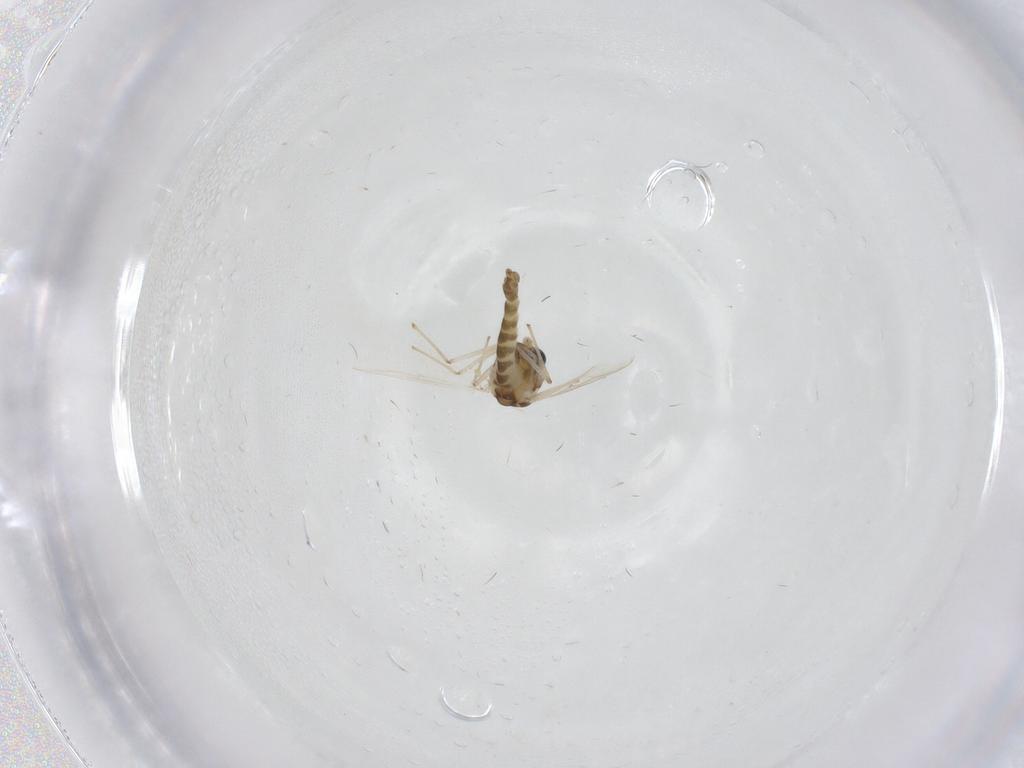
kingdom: Animalia
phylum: Arthropoda
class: Insecta
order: Diptera
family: Chironomidae
